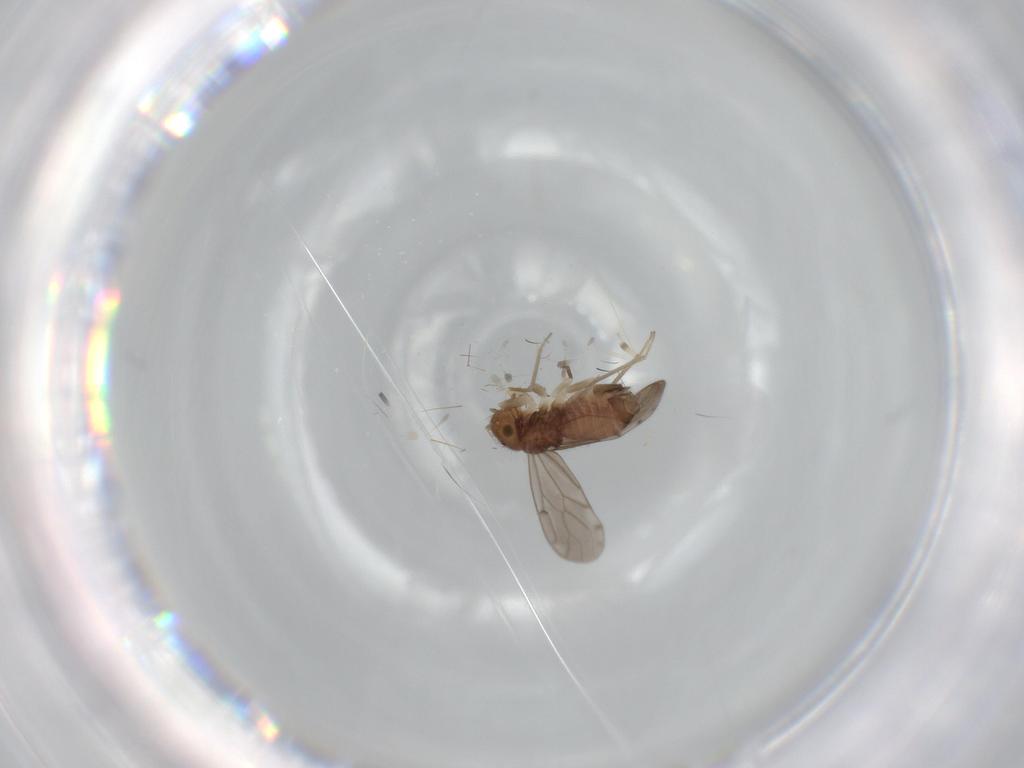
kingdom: Animalia
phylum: Arthropoda
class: Insecta
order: Psocodea
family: Ectopsocidae
